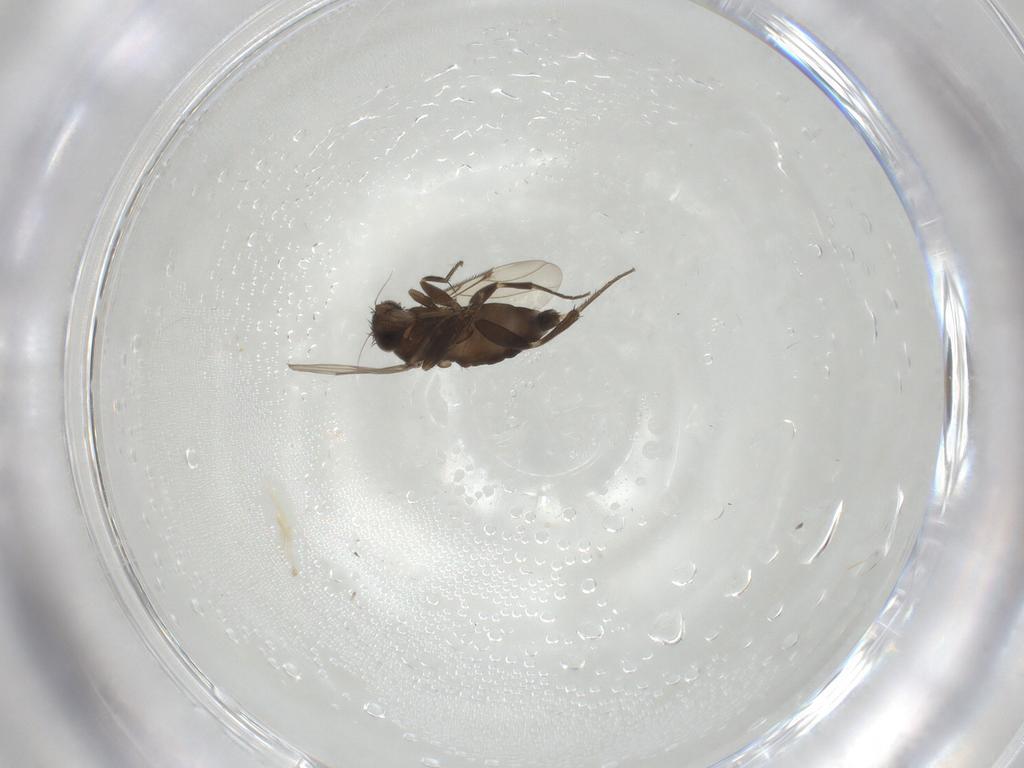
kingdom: Animalia
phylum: Arthropoda
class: Insecta
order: Diptera
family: Phoridae
